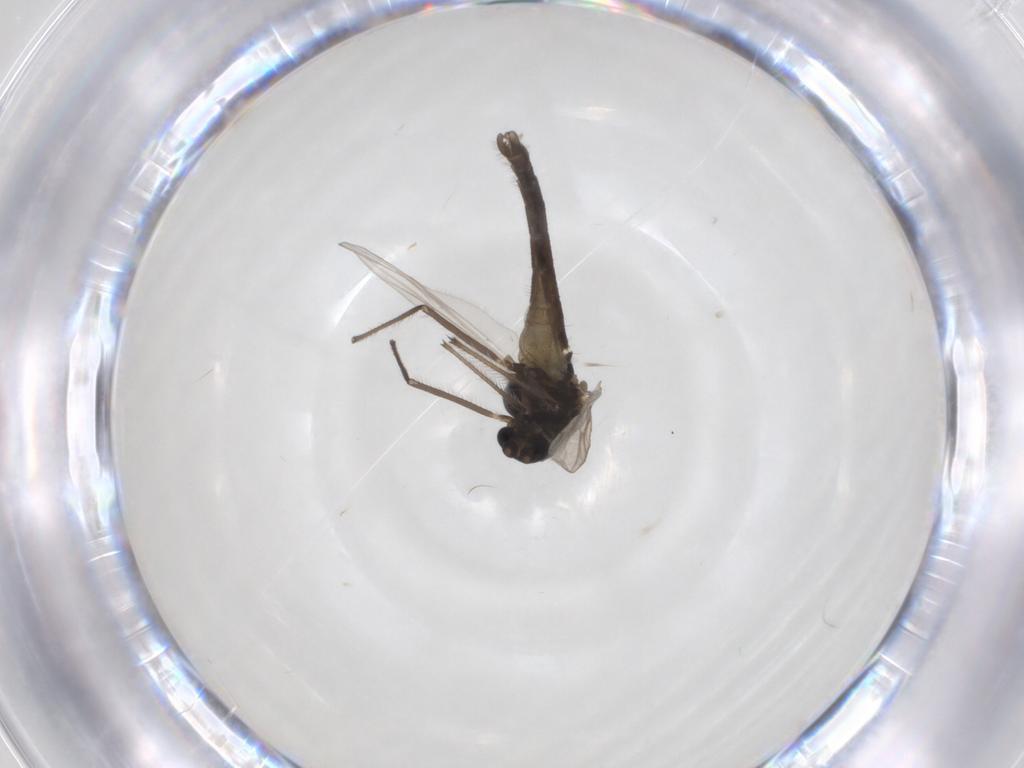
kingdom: Animalia
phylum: Arthropoda
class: Insecta
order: Diptera
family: Chironomidae
